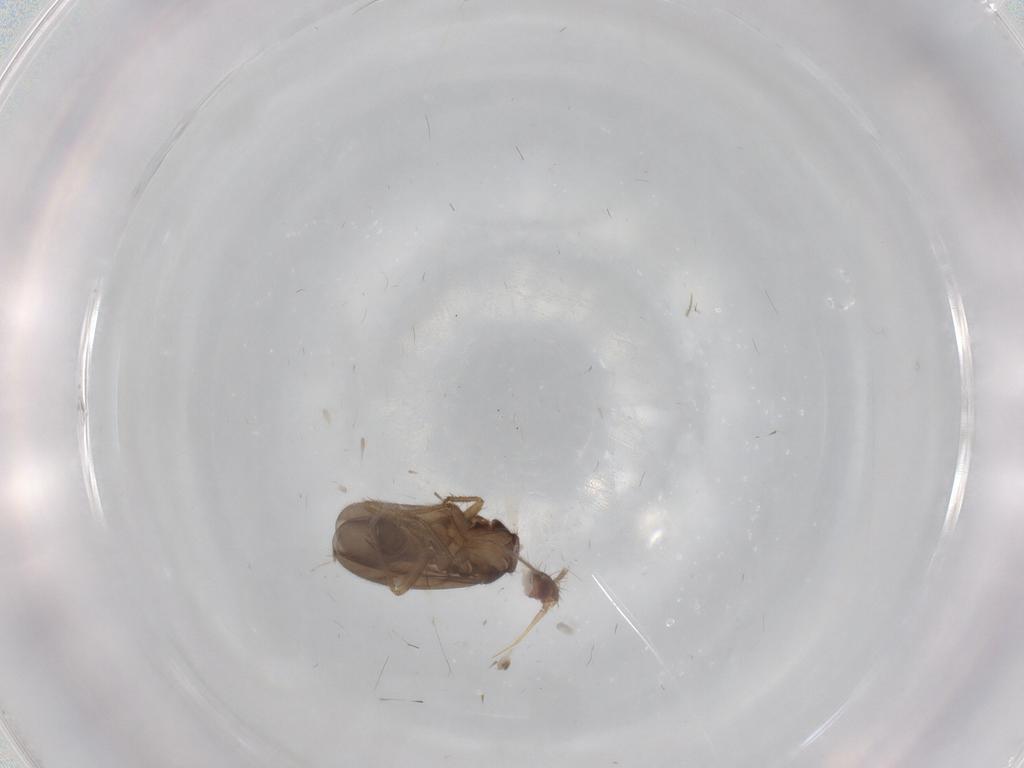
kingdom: Animalia
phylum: Arthropoda
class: Insecta
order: Hemiptera
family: Ceratocombidae
